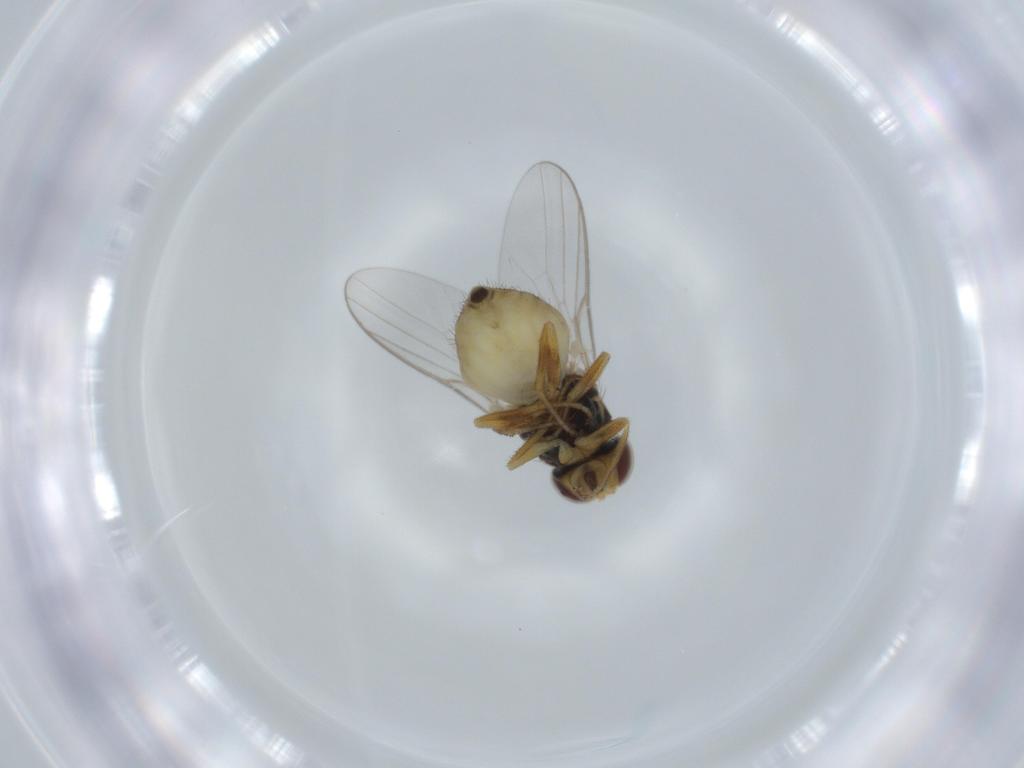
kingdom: Animalia
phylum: Arthropoda
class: Insecta
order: Diptera
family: Chloropidae
